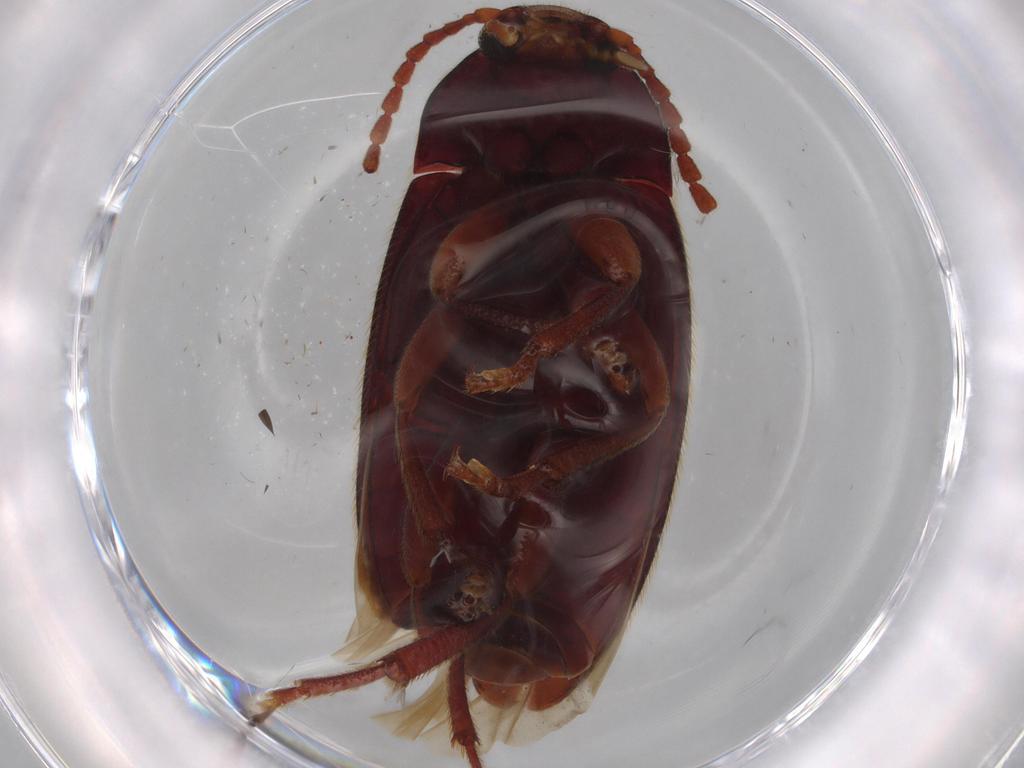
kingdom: Animalia
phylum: Arthropoda
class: Insecta
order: Coleoptera
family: Chrysomelidae
